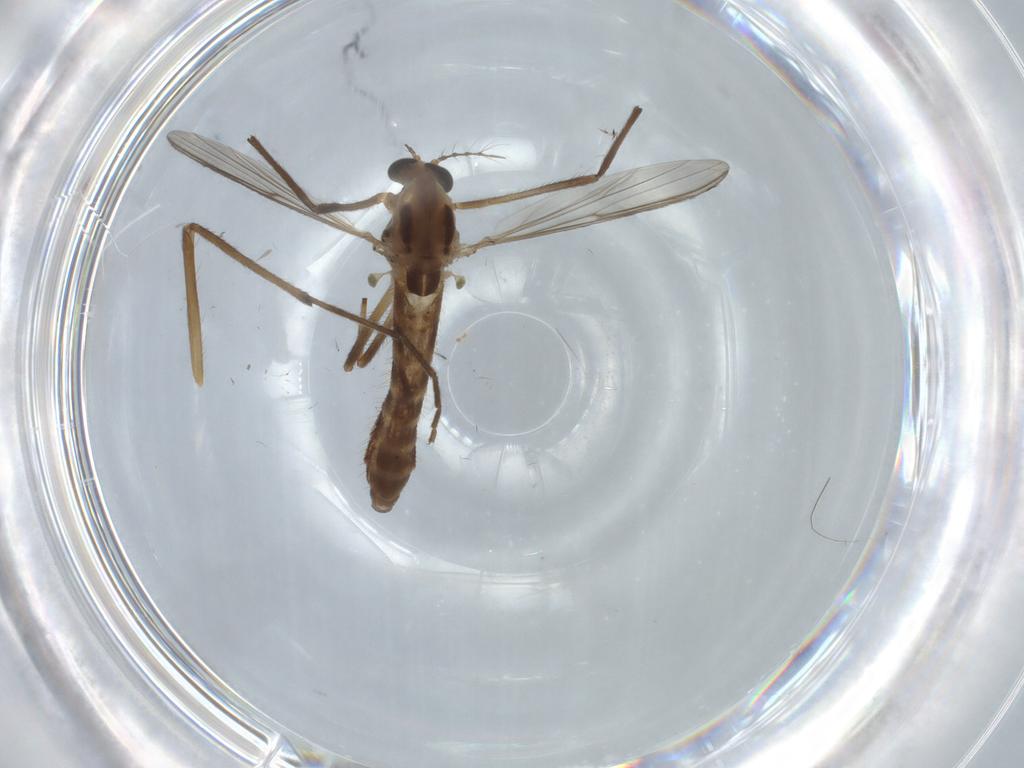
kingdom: Animalia
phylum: Arthropoda
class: Insecta
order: Diptera
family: Chironomidae
